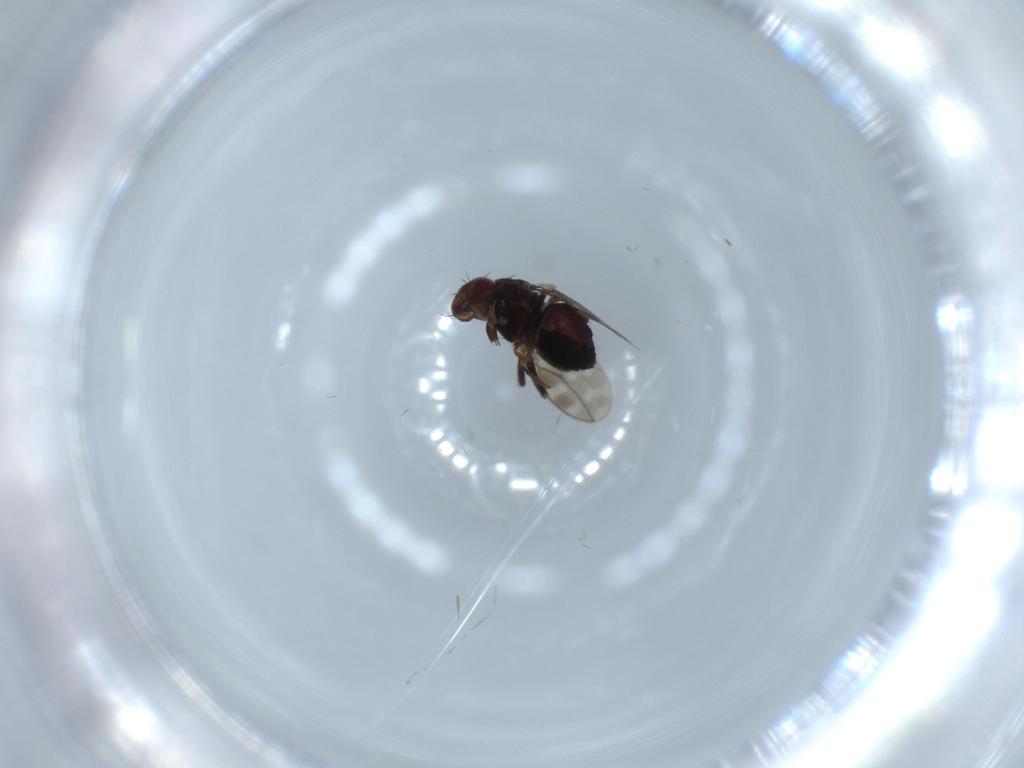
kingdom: Animalia
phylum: Arthropoda
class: Insecta
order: Diptera
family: Sphaeroceridae
